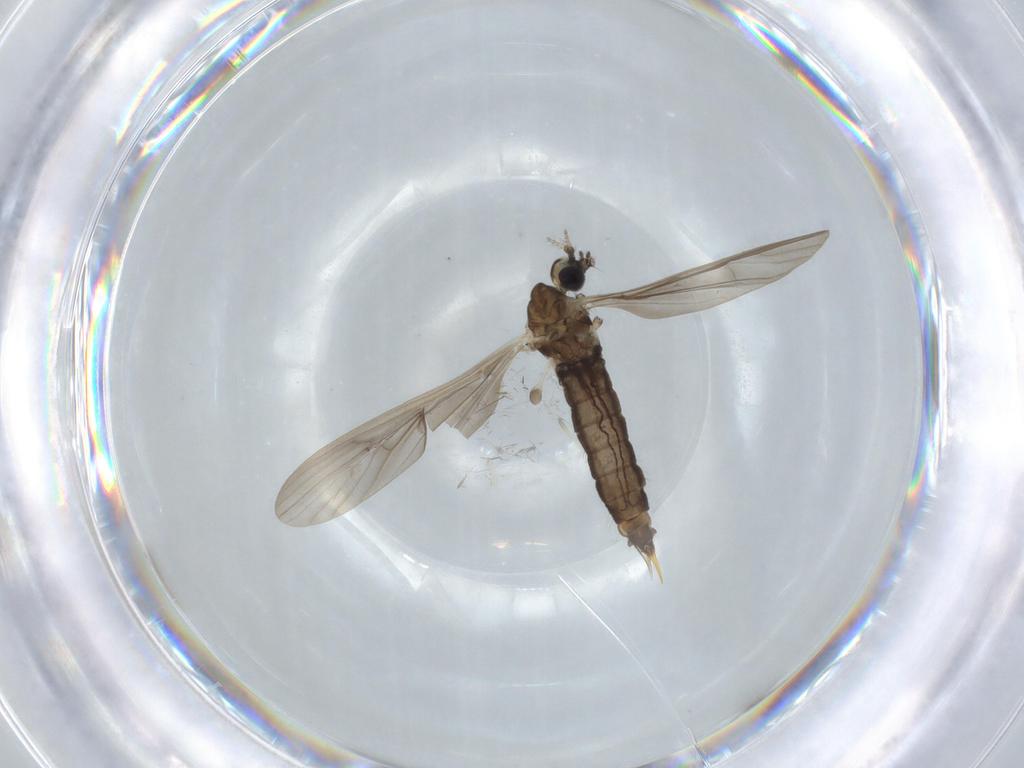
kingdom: Animalia
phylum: Arthropoda
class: Insecta
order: Diptera
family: Limoniidae
